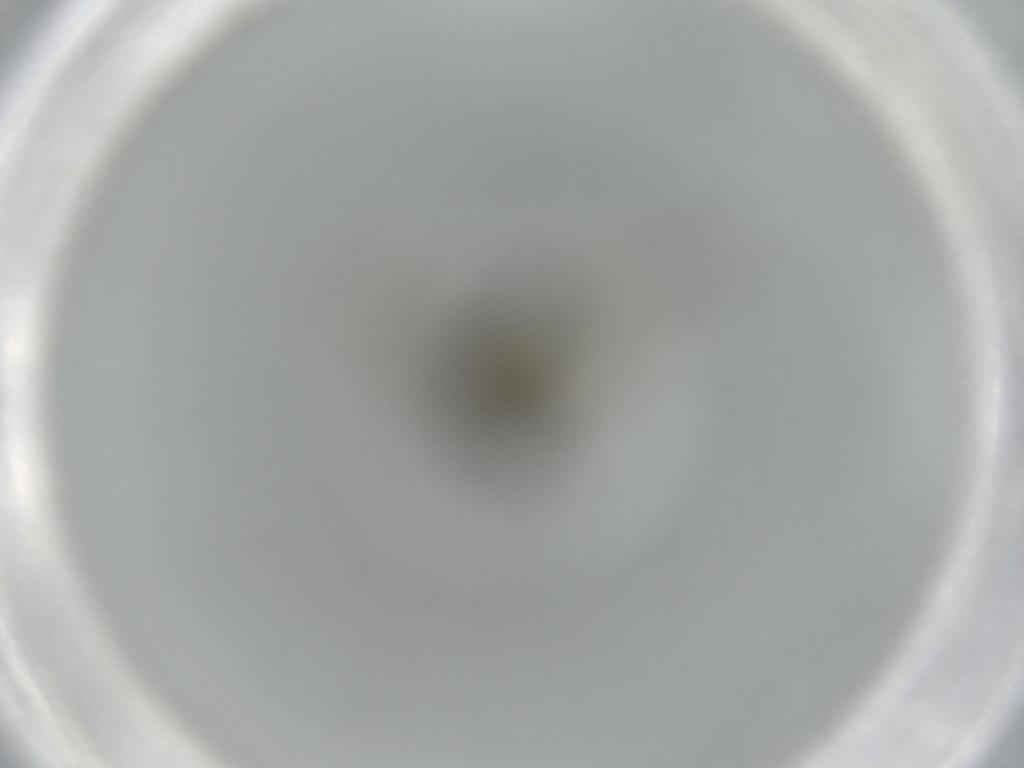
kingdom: Animalia
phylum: Arthropoda
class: Insecta
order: Diptera
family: Phoridae
